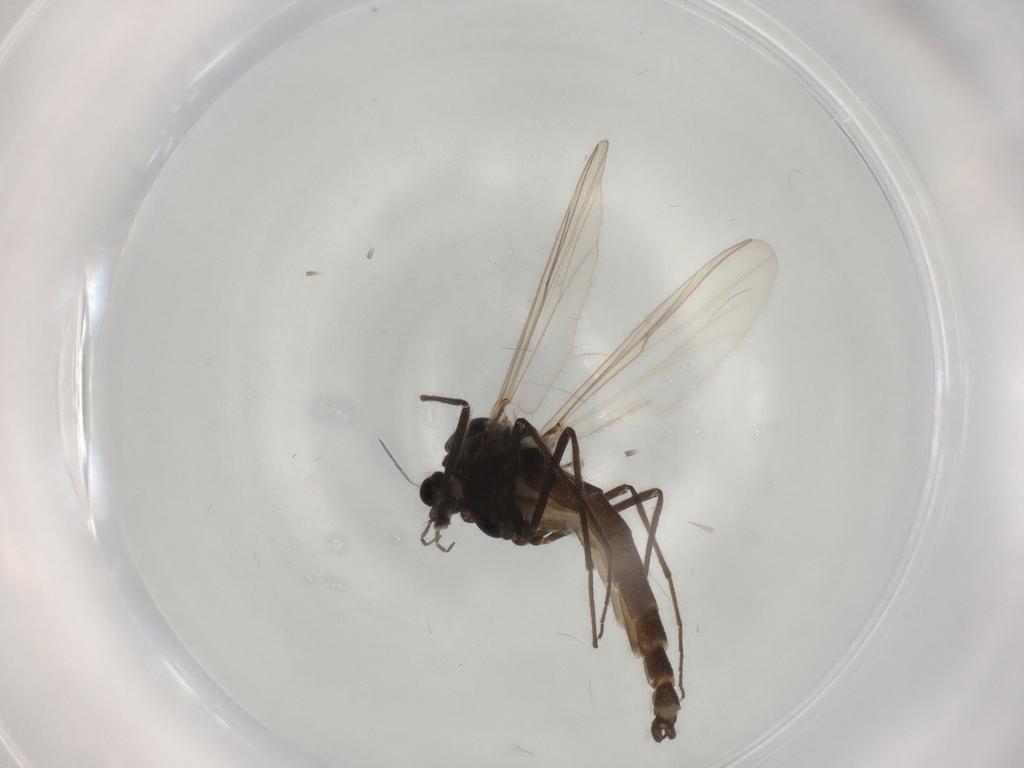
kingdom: Animalia
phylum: Arthropoda
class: Insecta
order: Diptera
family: Chironomidae
